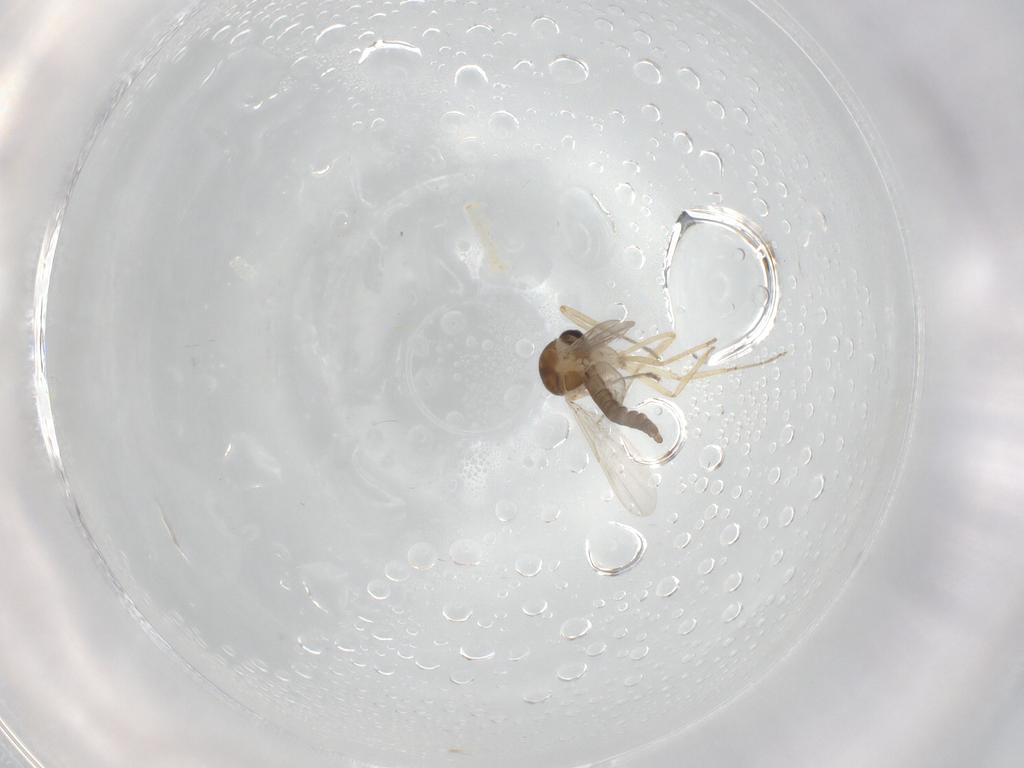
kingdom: Animalia
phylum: Arthropoda
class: Insecta
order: Diptera
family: Ceratopogonidae
